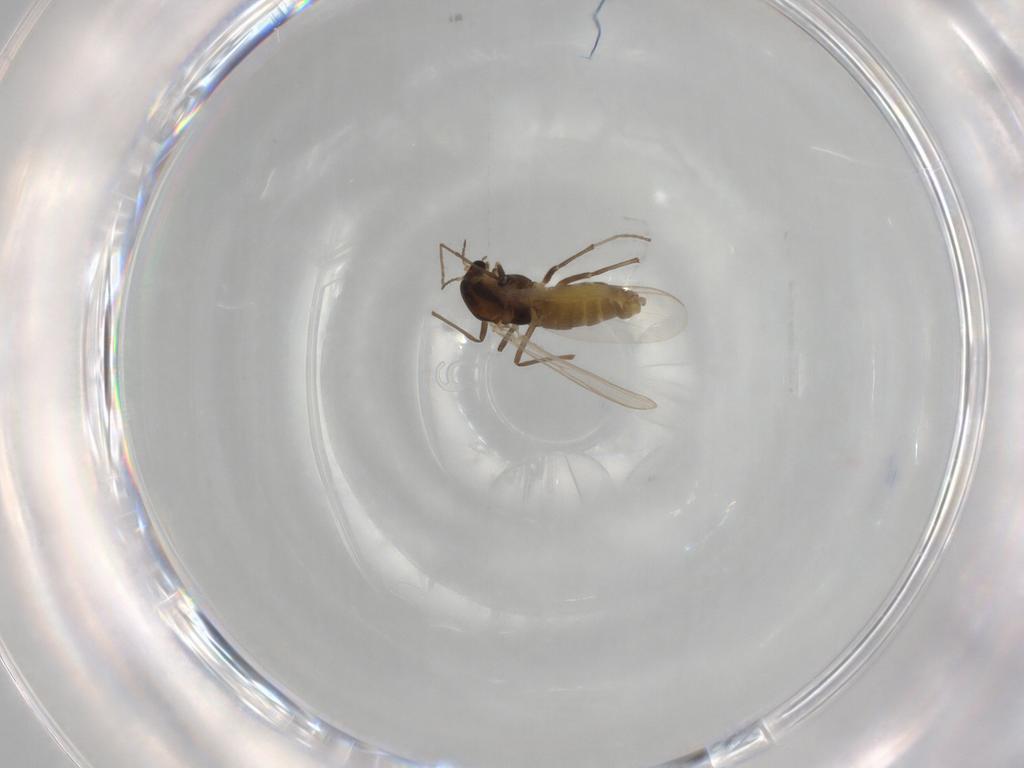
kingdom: Animalia
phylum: Arthropoda
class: Insecta
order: Diptera
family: Chironomidae
